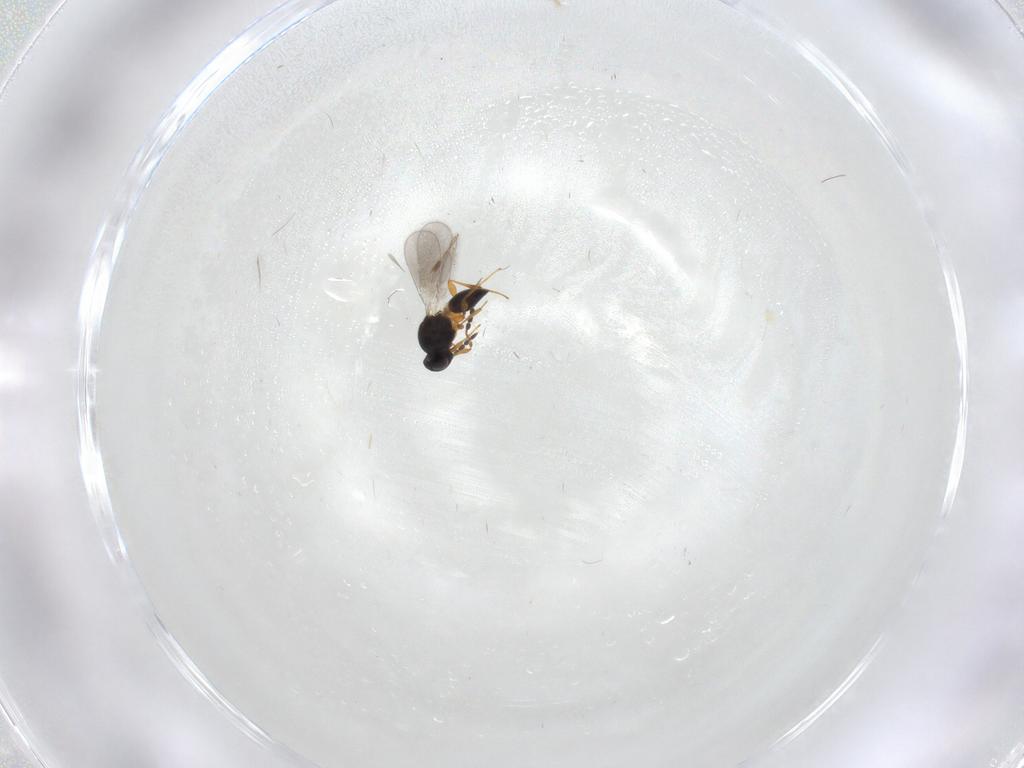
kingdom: Animalia
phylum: Arthropoda
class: Insecta
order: Hymenoptera
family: Platygastridae
